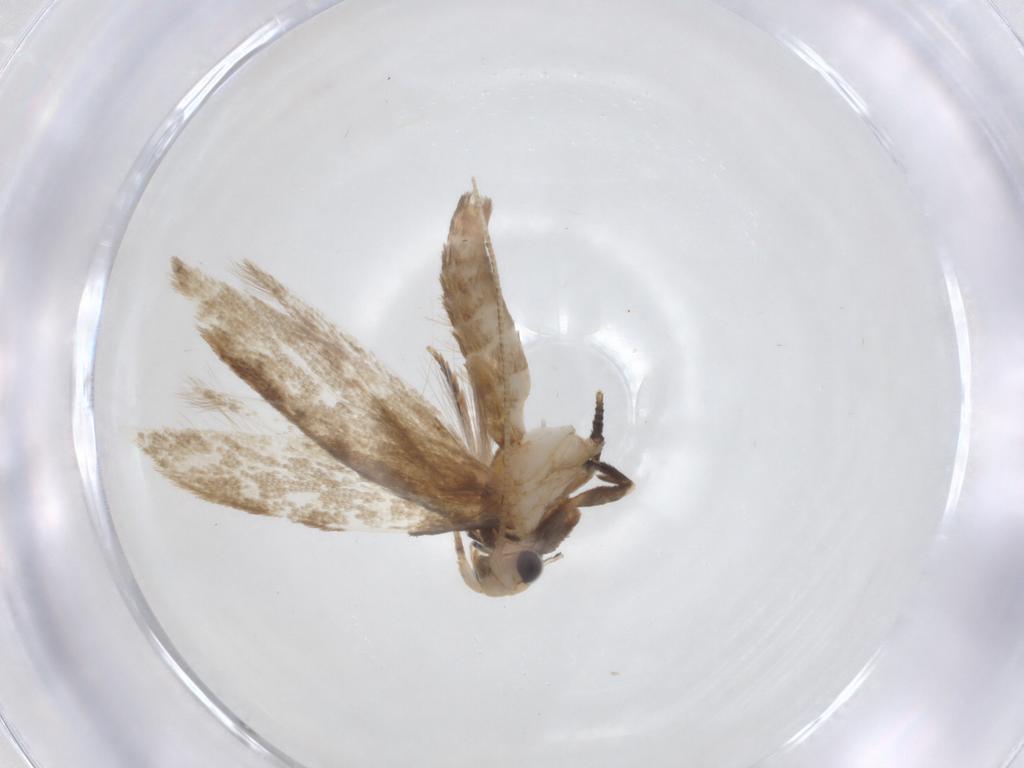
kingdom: Animalia
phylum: Arthropoda
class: Insecta
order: Lepidoptera
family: Tineidae
